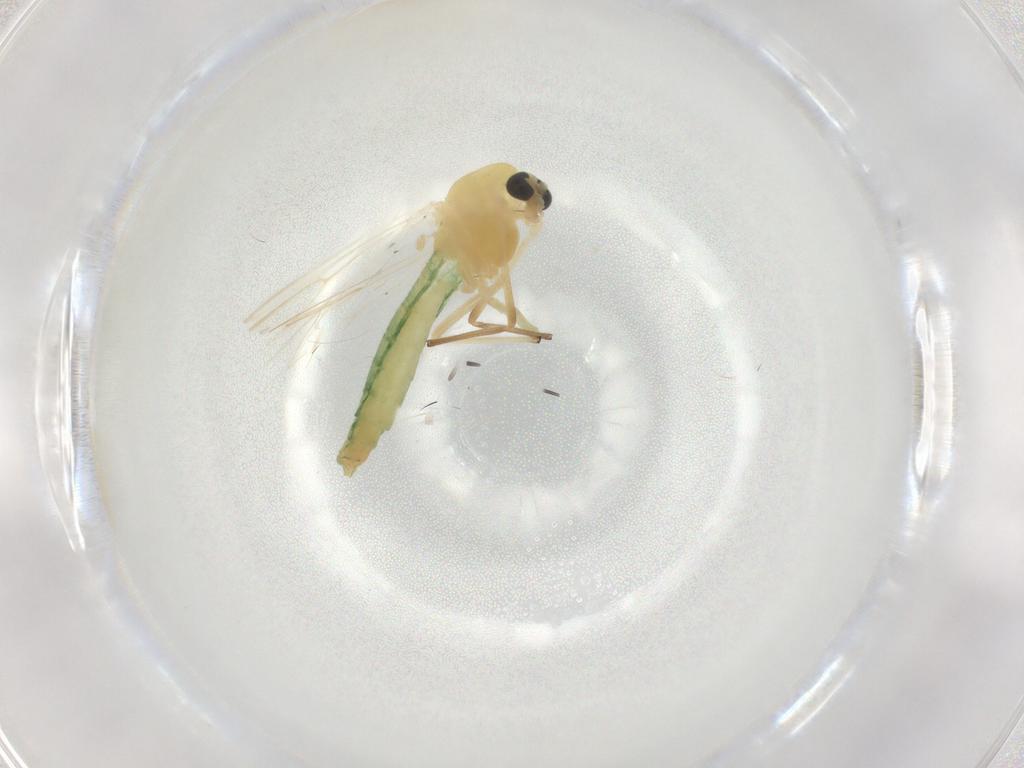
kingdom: Animalia
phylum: Arthropoda
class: Insecta
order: Diptera
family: Chironomidae
